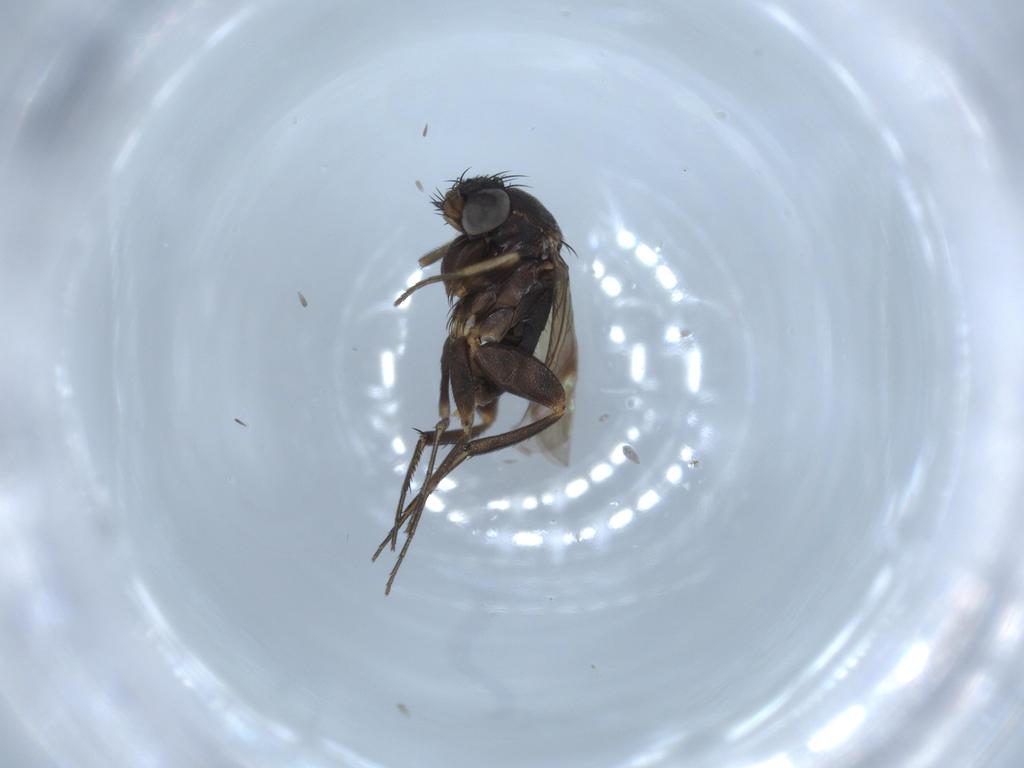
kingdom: Animalia
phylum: Arthropoda
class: Insecta
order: Diptera
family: Phoridae
